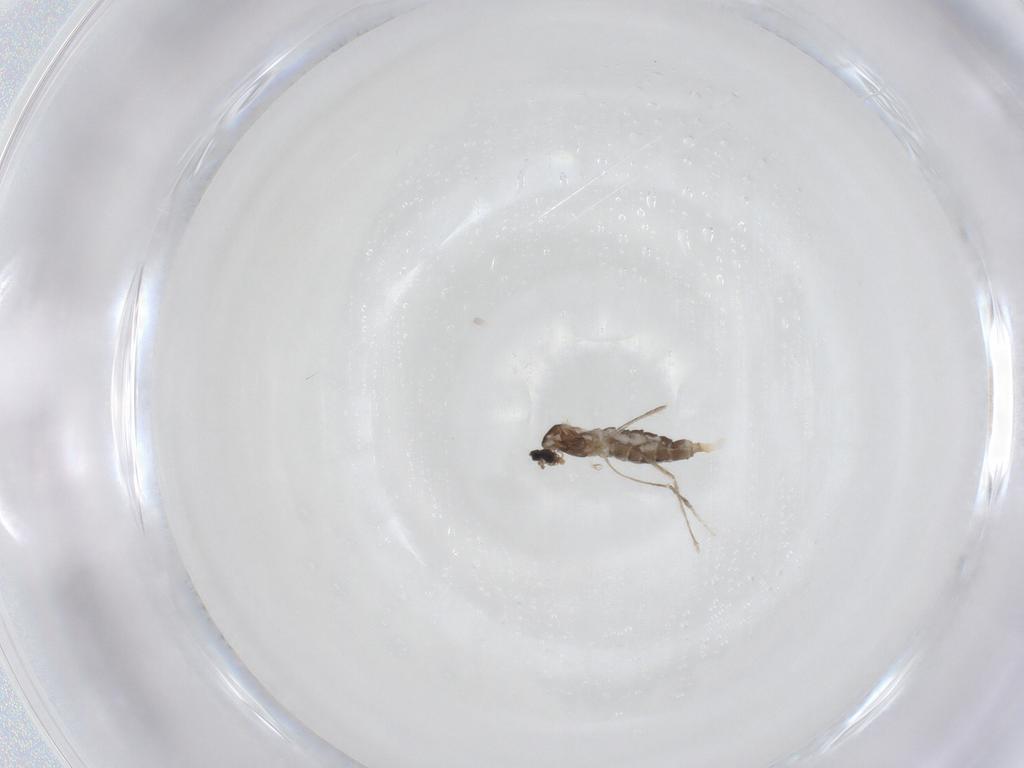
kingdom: Animalia
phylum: Arthropoda
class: Insecta
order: Diptera
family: Cecidomyiidae
